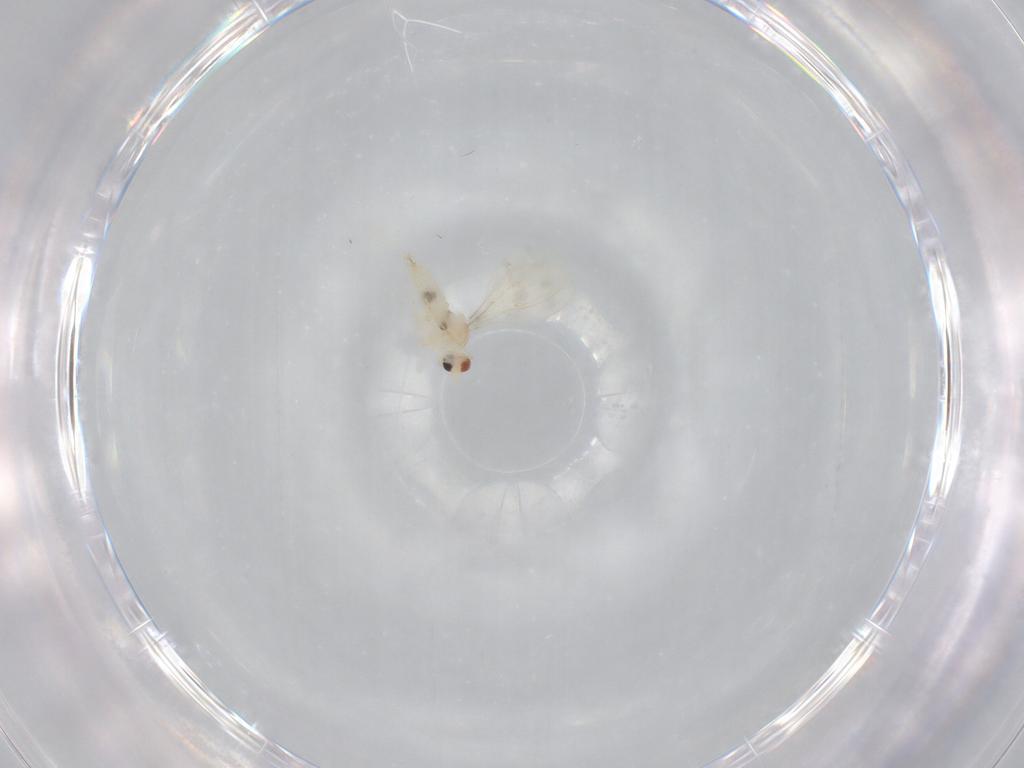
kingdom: Animalia
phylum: Arthropoda
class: Insecta
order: Diptera
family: Cecidomyiidae
